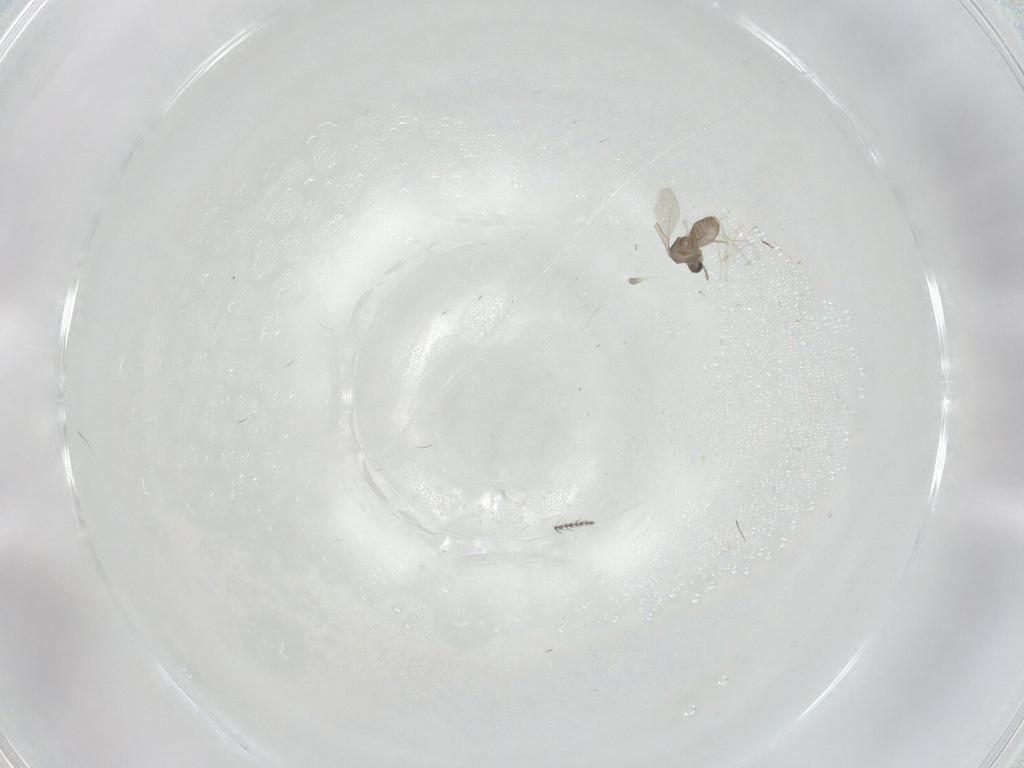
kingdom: Animalia
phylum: Arthropoda
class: Insecta
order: Diptera
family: Cecidomyiidae
